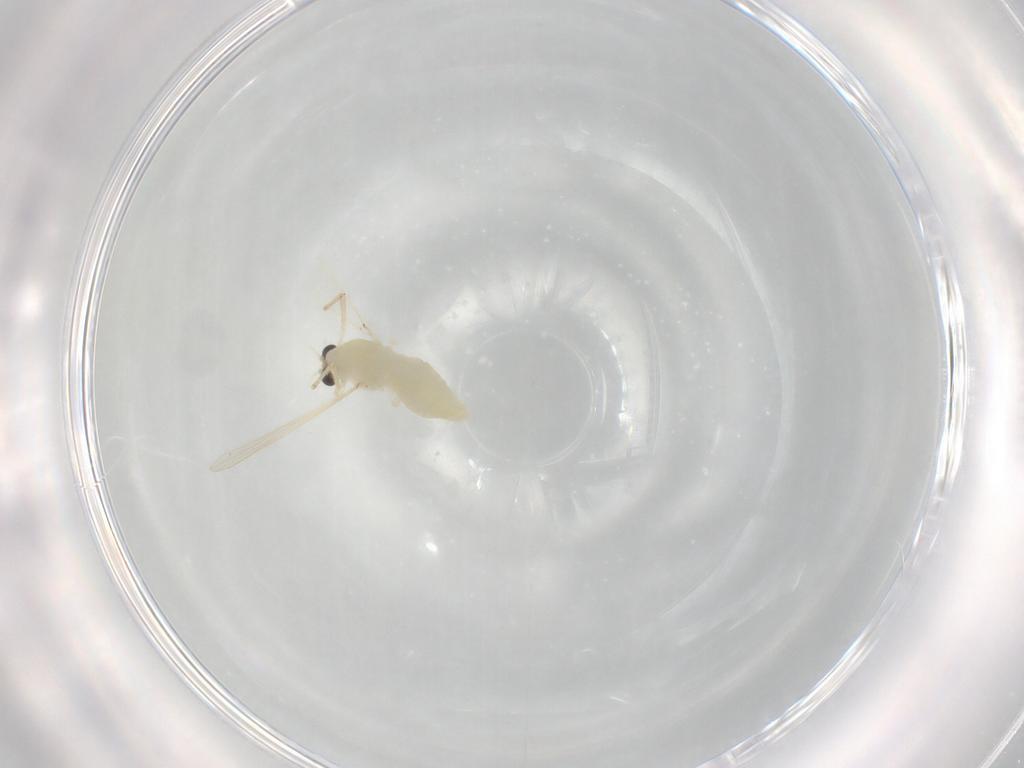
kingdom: Animalia
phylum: Arthropoda
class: Insecta
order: Diptera
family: Chironomidae
